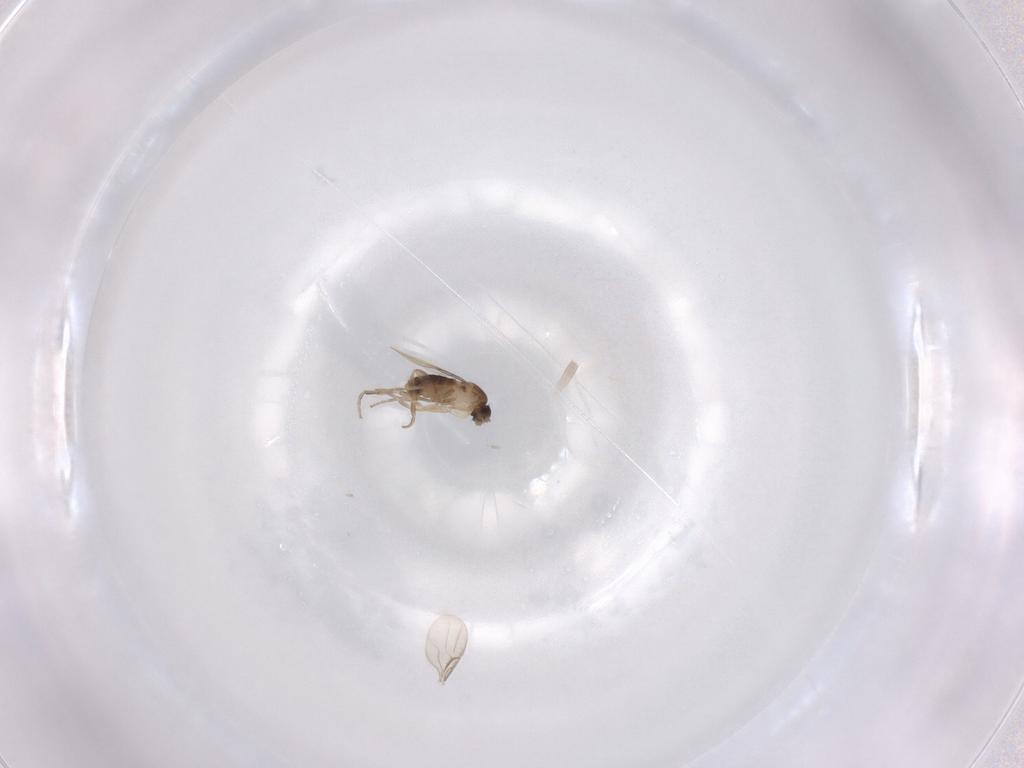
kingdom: Animalia
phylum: Arthropoda
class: Insecta
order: Diptera
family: Phoridae
